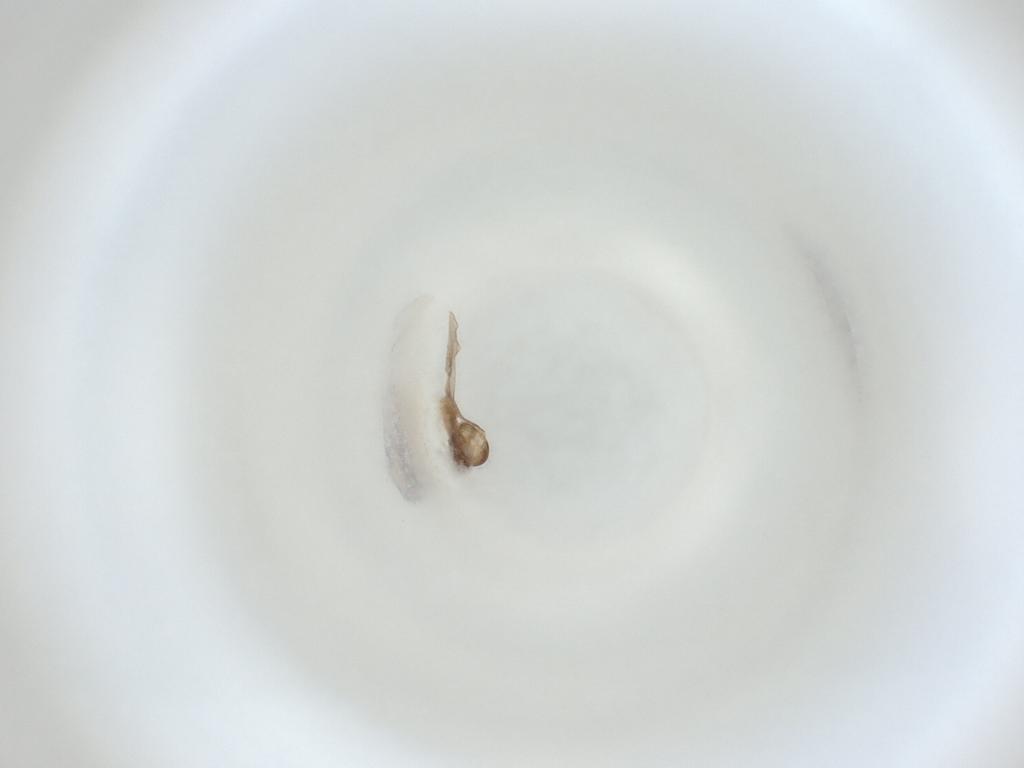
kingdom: Animalia
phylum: Arthropoda
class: Insecta
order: Diptera
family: Cecidomyiidae
